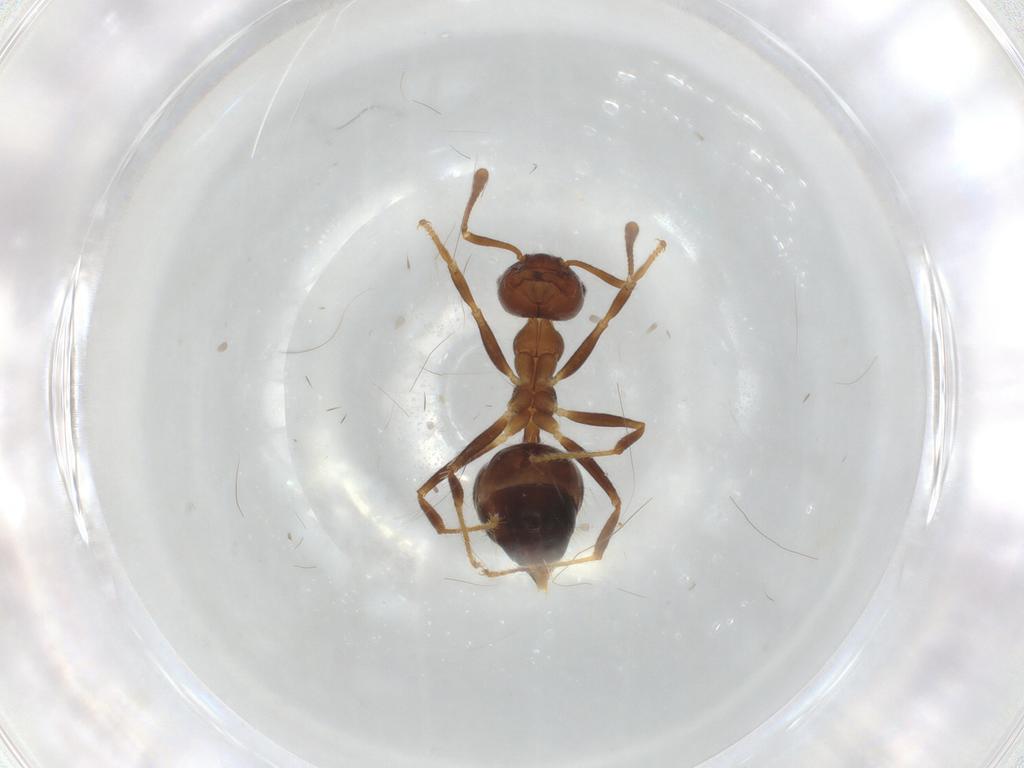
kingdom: Animalia
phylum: Arthropoda
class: Insecta
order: Hymenoptera
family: Formicidae
